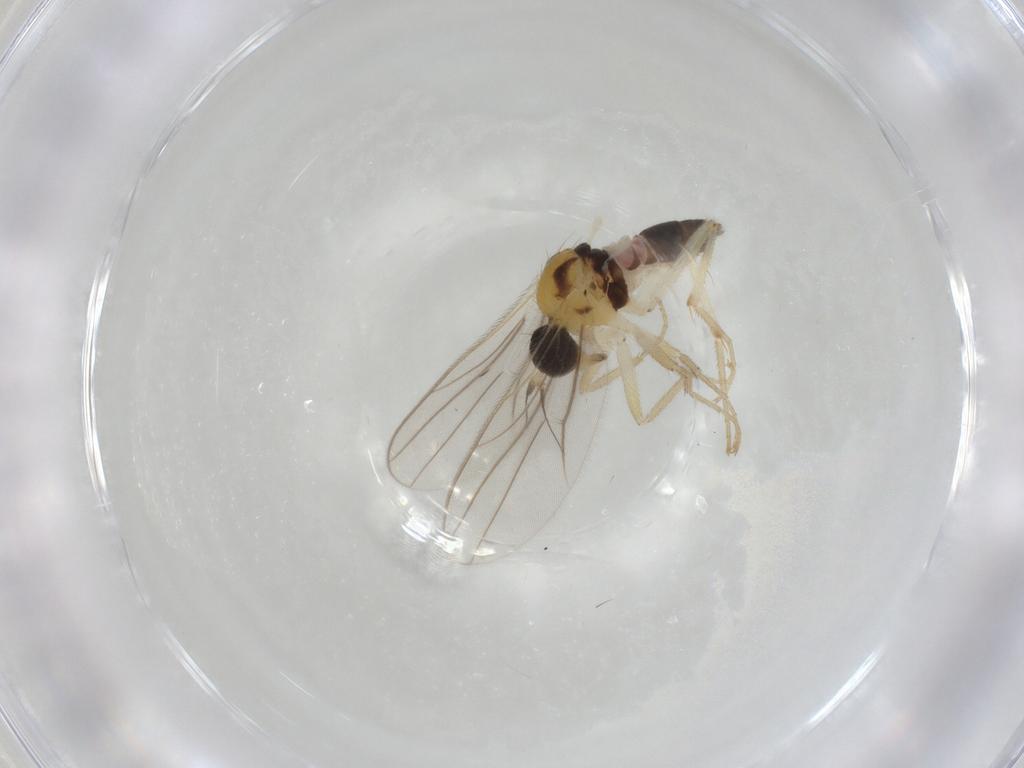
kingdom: Animalia
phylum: Arthropoda
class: Insecta
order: Diptera
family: Hybotidae
